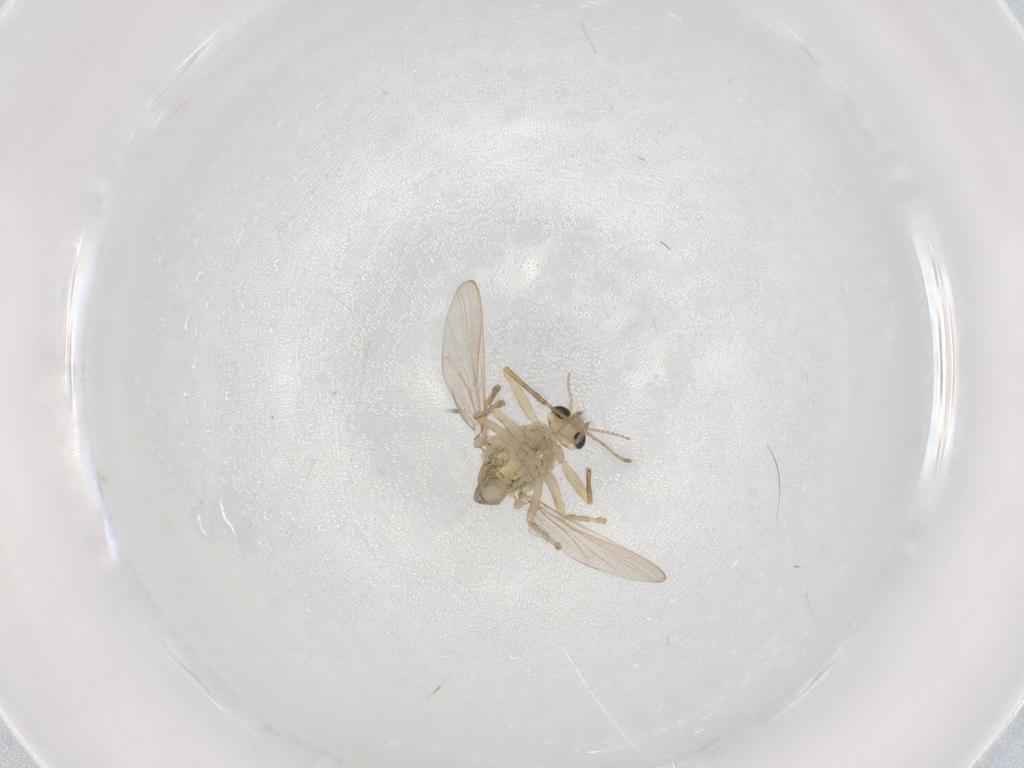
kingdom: Animalia
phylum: Arthropoda
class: Insecta
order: Diptera
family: Chironomidae
